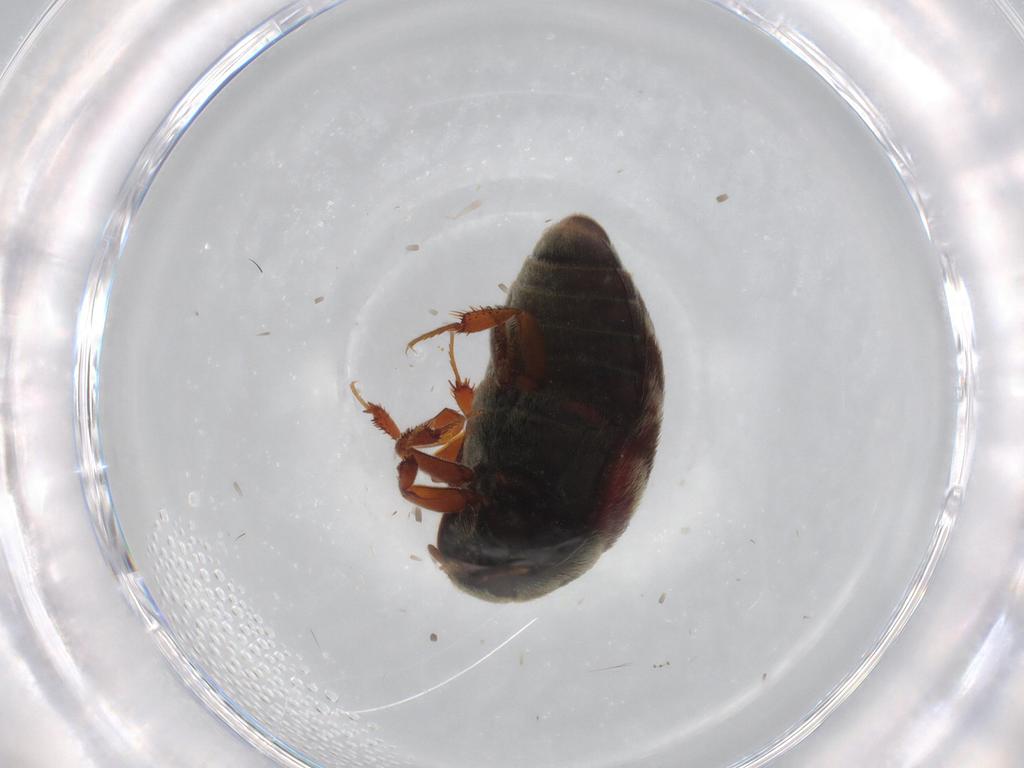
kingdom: Animalia
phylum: Arthropoda
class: Insecta
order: Coleoptera
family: Dermestidae
